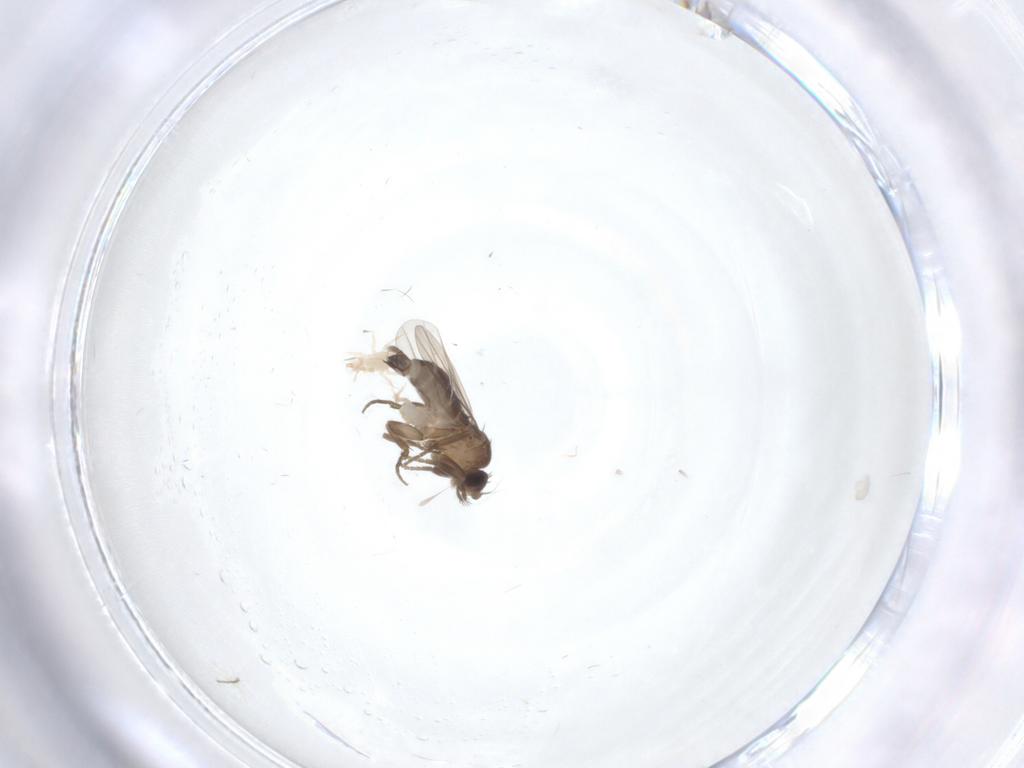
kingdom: Animalia
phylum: Arthropoda
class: Insecta
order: Diptera
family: Phoridae
